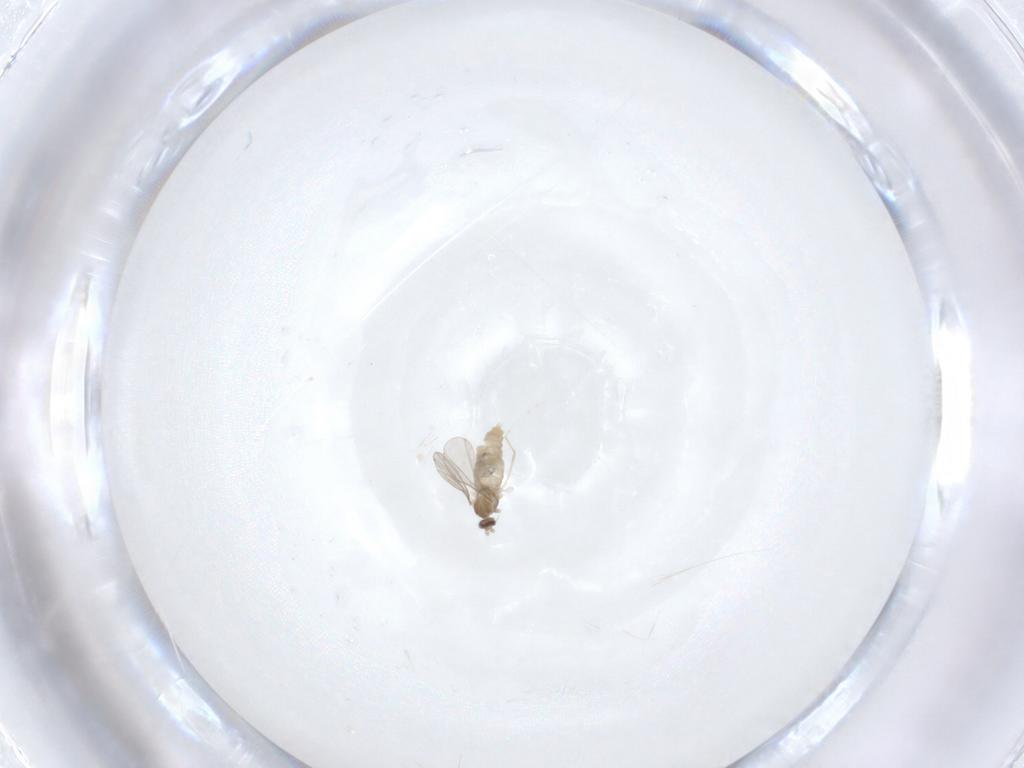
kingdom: Animalia
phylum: Arthropoda
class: Insecta
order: Diptera
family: Cecidomyiidae
